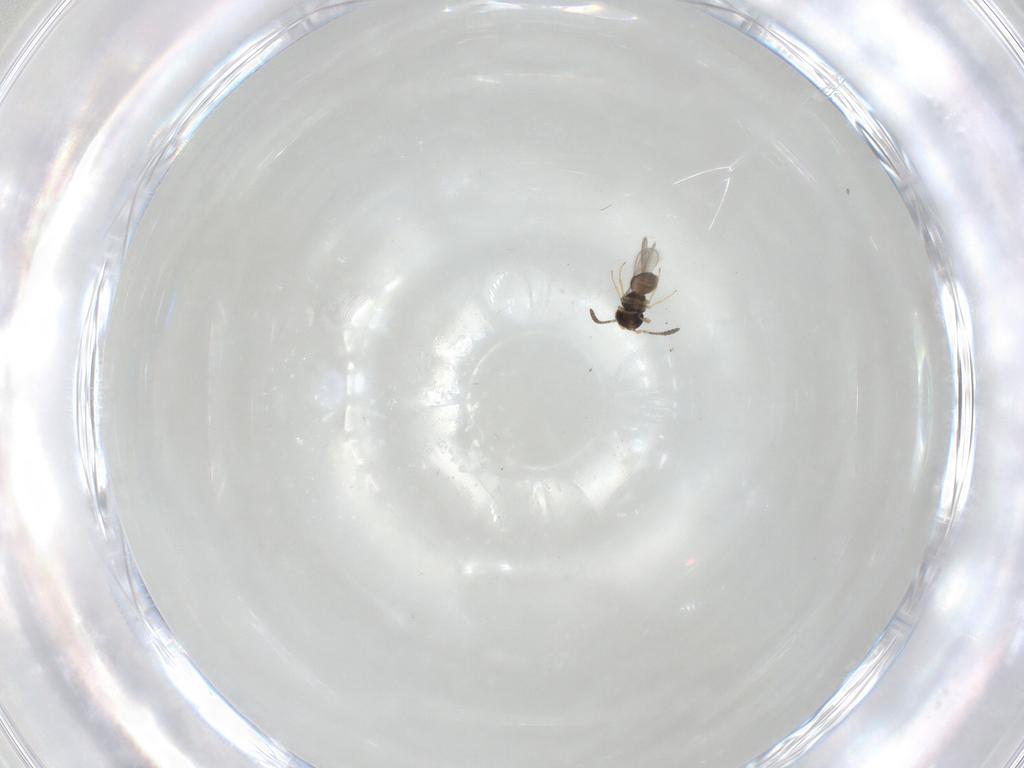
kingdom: Animalia
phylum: Arthropoda
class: Insecta
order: Hymenoptera
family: Scelionidae
